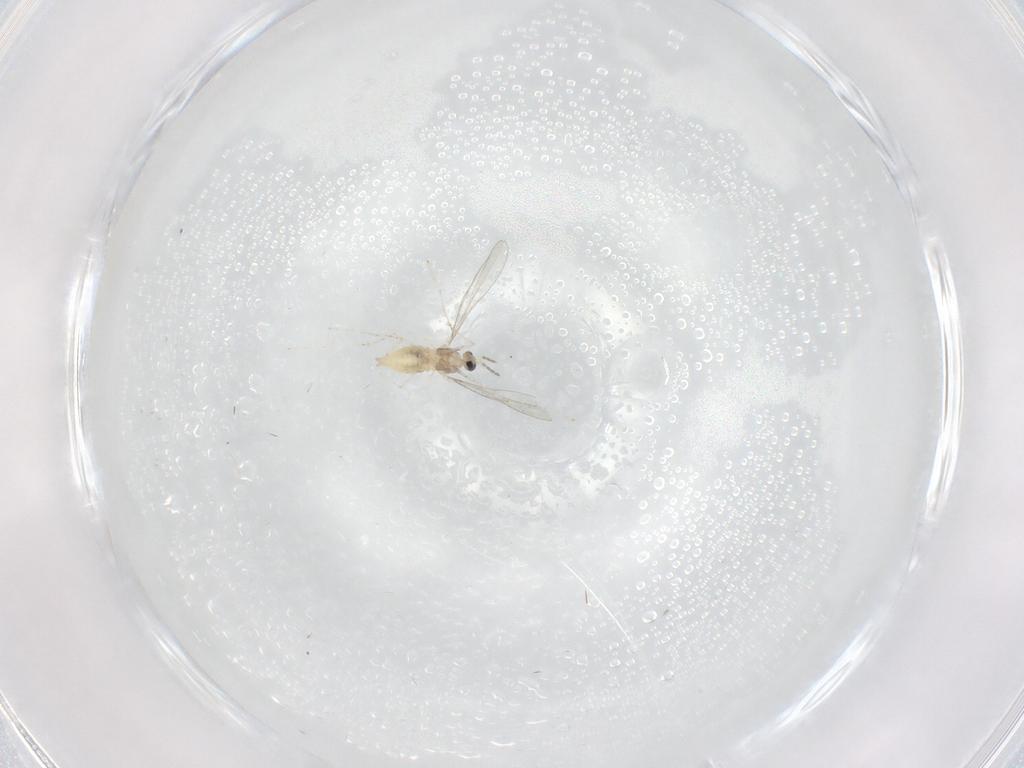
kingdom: Animalia
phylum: Arthropoda
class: Insecta
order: Diptera
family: Cecidomyiidae
